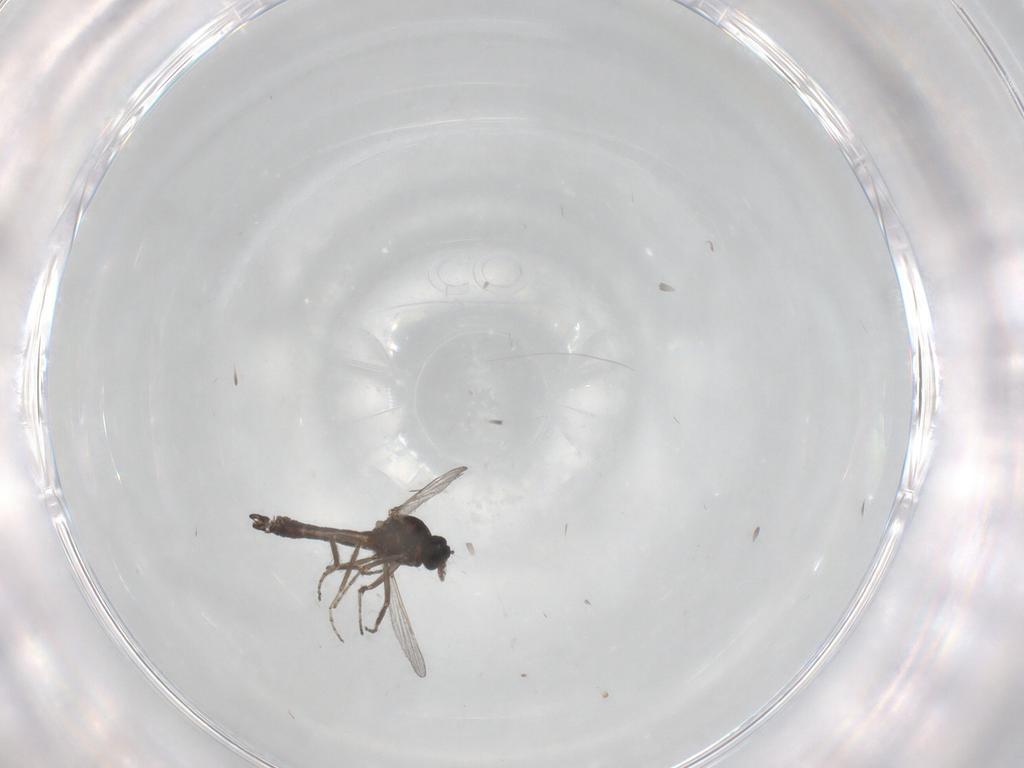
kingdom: Animalia
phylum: Arthropoda
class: Insecta
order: Diptera
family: Ceratopogonidae
